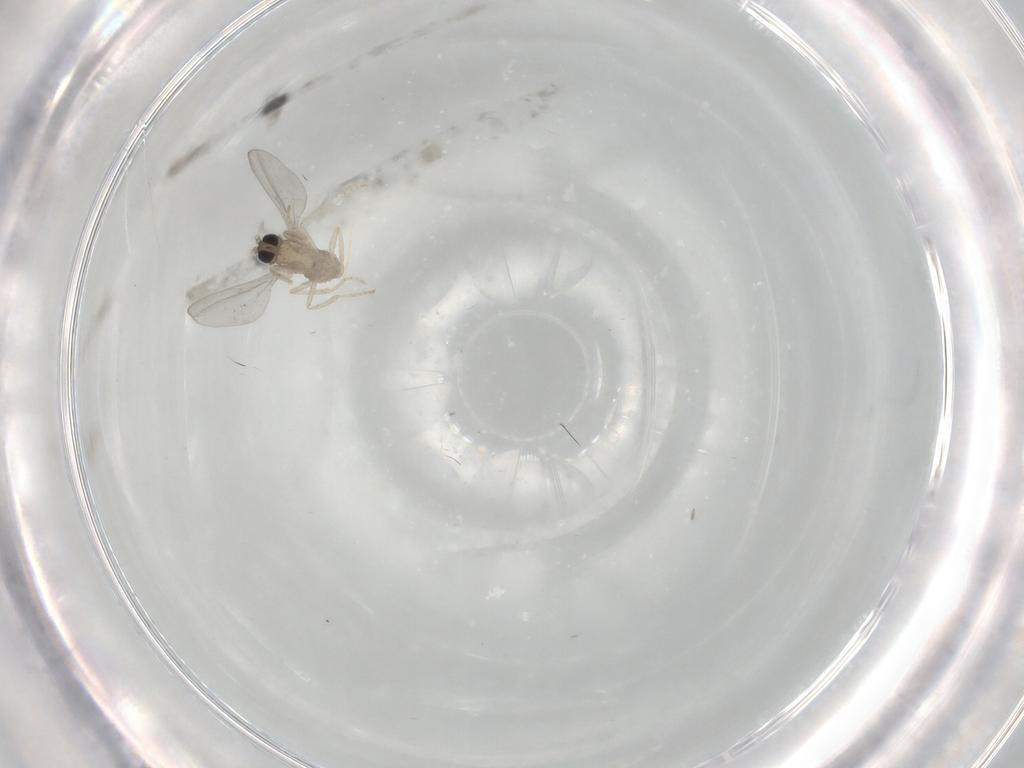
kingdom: Animalia
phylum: Arthropoda
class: Insecta
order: Diptera
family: Cecidomyiidae
